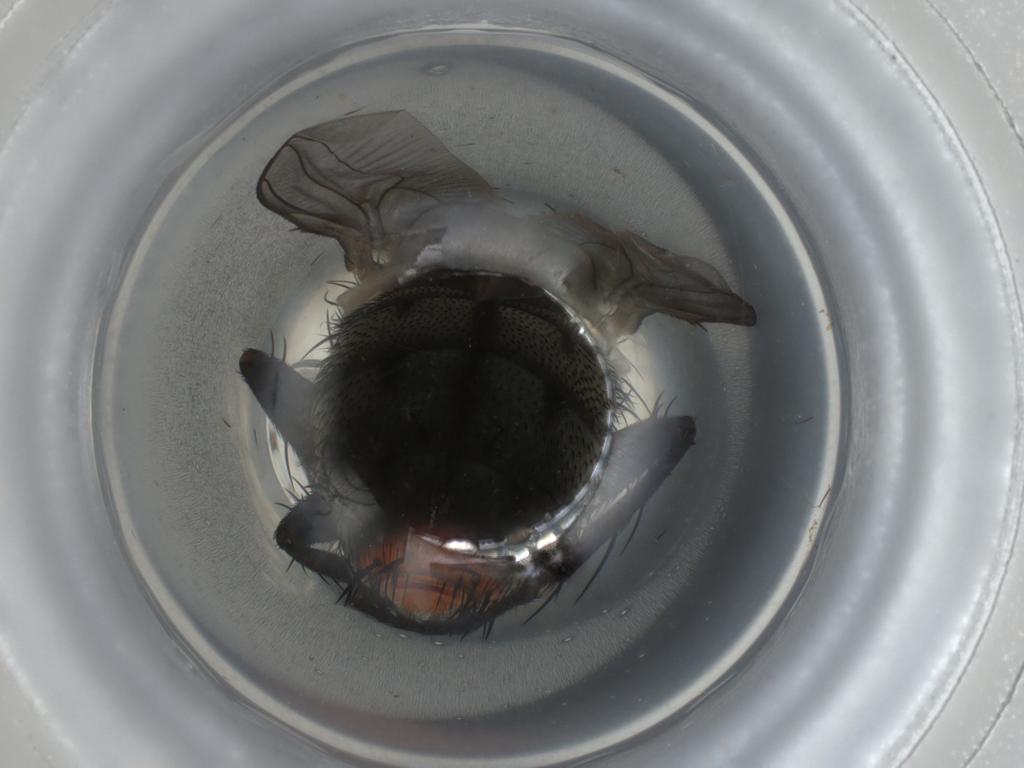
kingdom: Animalia
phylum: Arthropoda
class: Insecta
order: Diptera
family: Sarcophagidae
